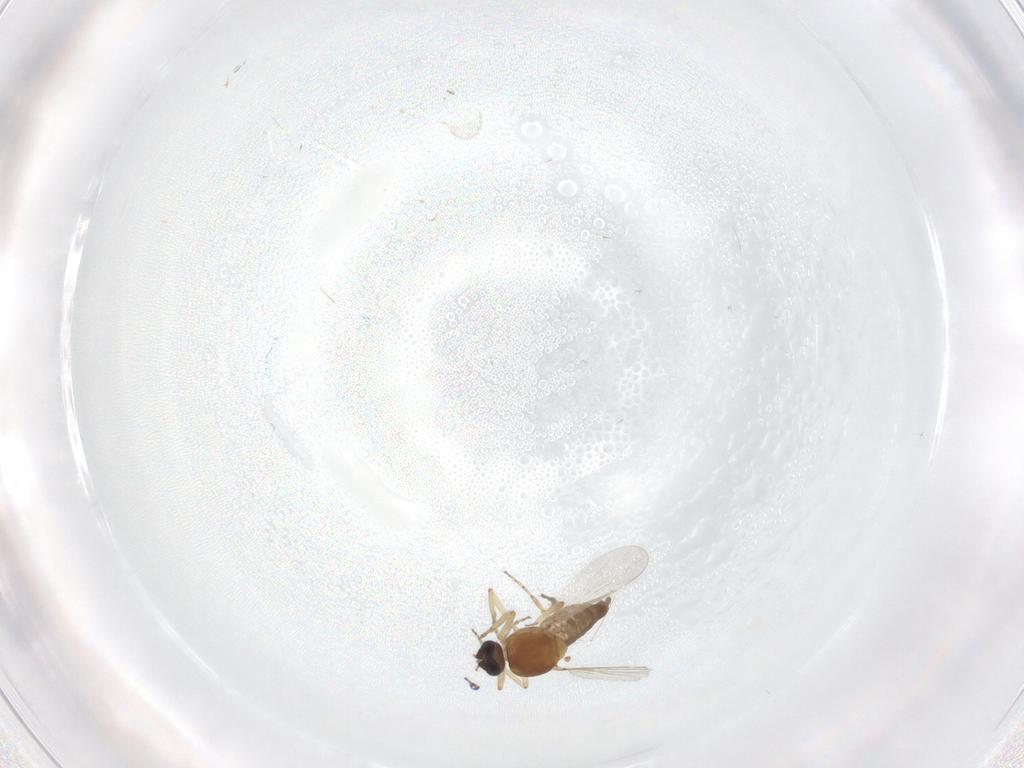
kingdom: Animalia
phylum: Arthropoda
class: Insecta
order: Diptera
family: Ceratopogonidae
